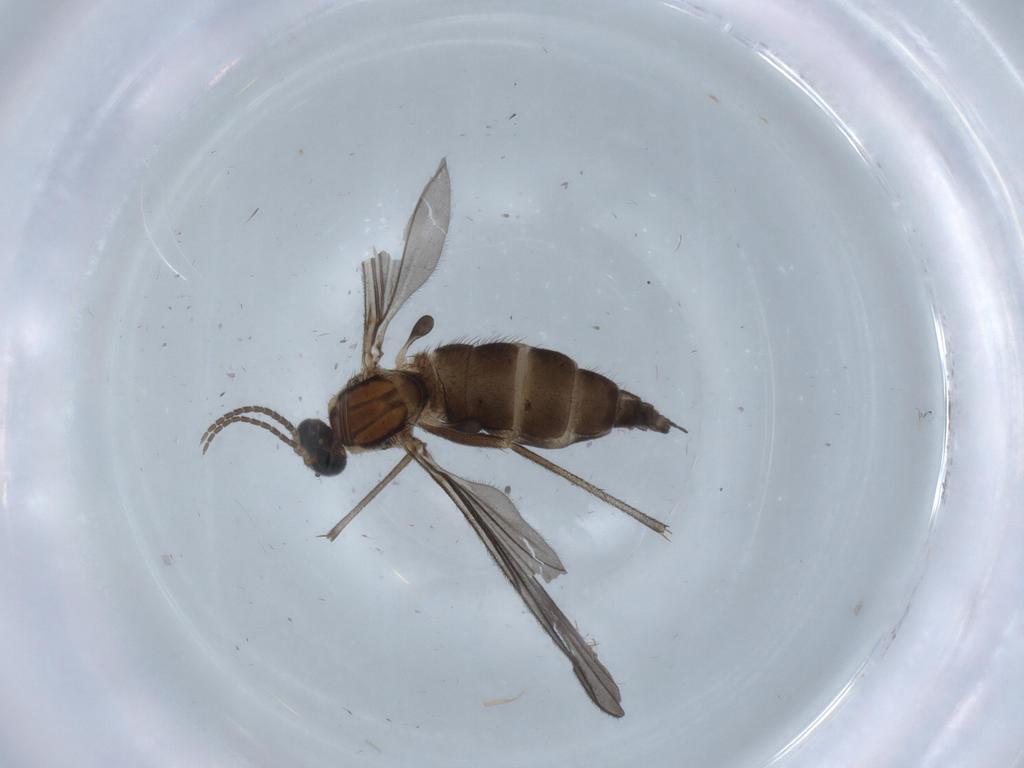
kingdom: Animalia
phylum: Arthropoda
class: Insecta
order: Diptera
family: Sciaridae
